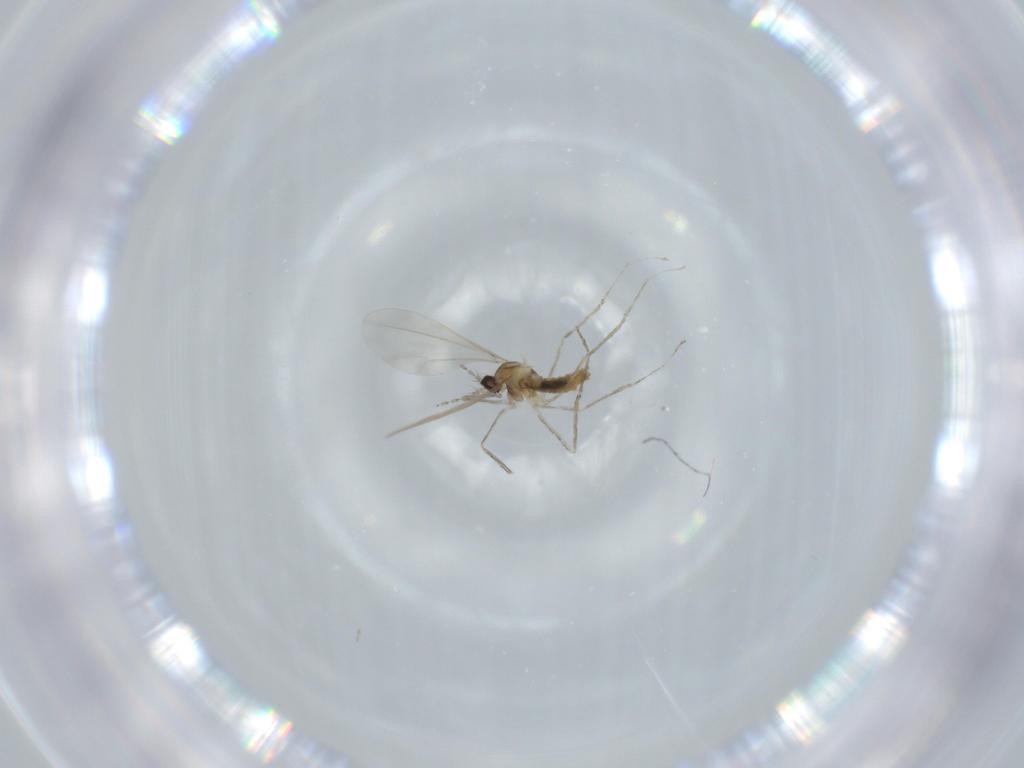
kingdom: Animalia
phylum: Arthropoda
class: Insecta
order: Diptera
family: Cecidomyiidae
